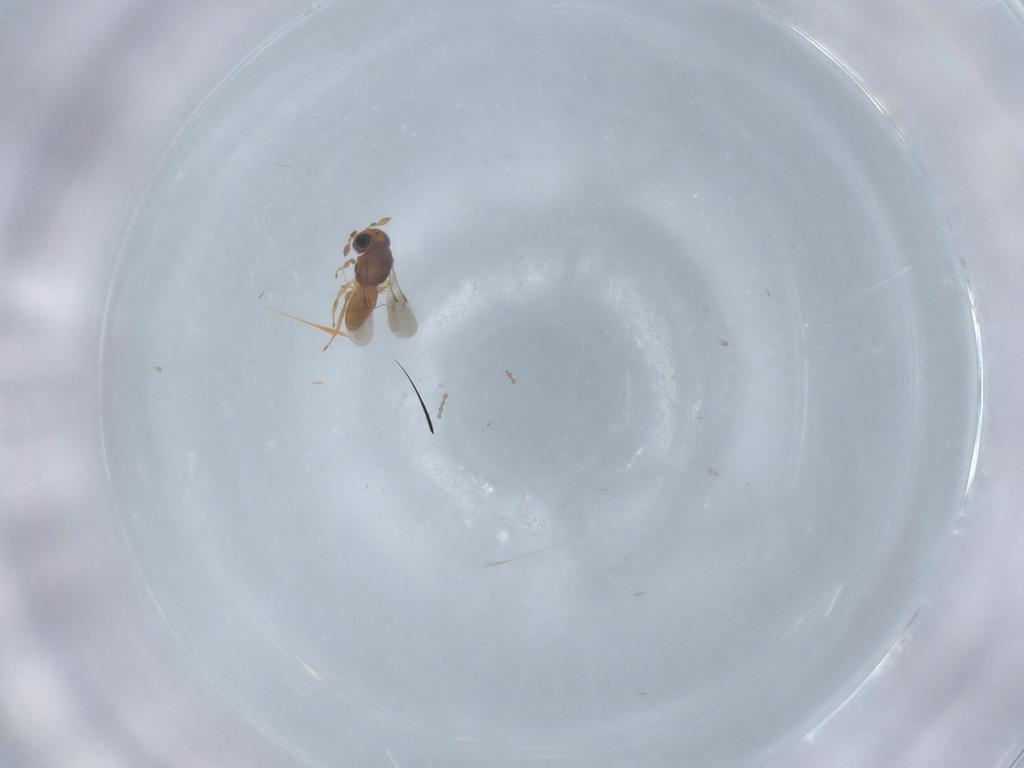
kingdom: Animalia
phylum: Arthropoda
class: Insecta
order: Hymenoptera
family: Scelionidae
